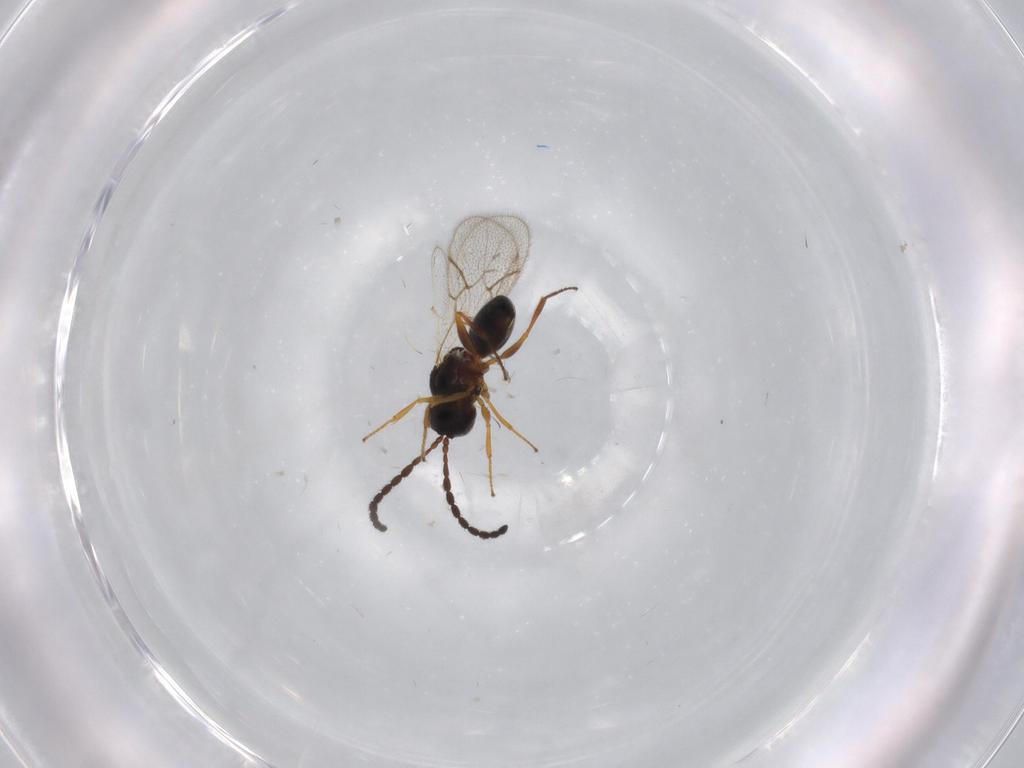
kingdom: Animalia
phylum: Arthropoda
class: Insecta
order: Hymenoptera
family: Figitidae
